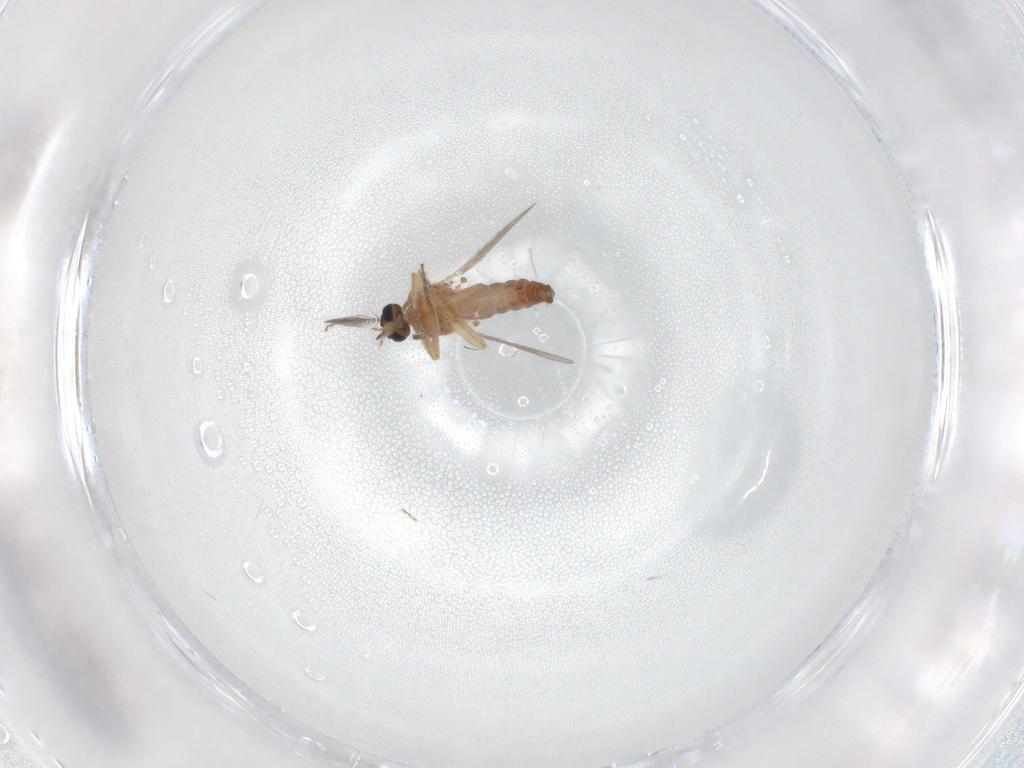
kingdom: Animalia
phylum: Arthropoda
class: Insecta
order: Diptera
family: Ceratopogonidae
